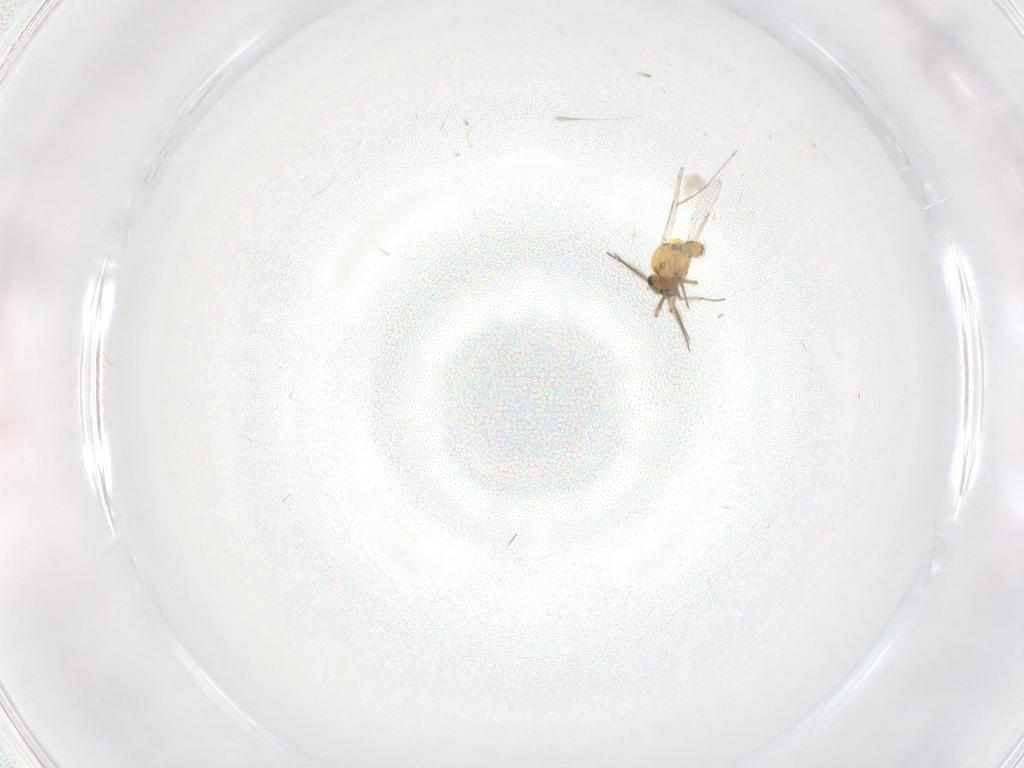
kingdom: Animalia
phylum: Arthropoda
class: Insecta
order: Diptera
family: Ceratopogonidae
